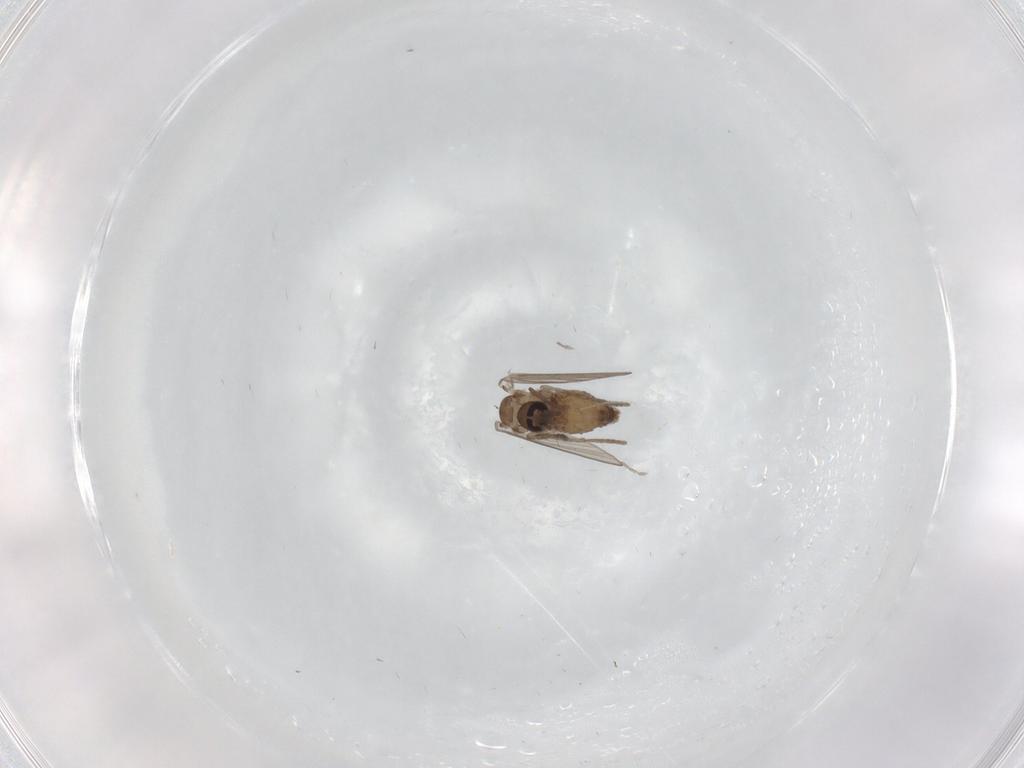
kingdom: Animalia
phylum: Arthropoda
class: Insecta
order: Diptera
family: Psychodidae
